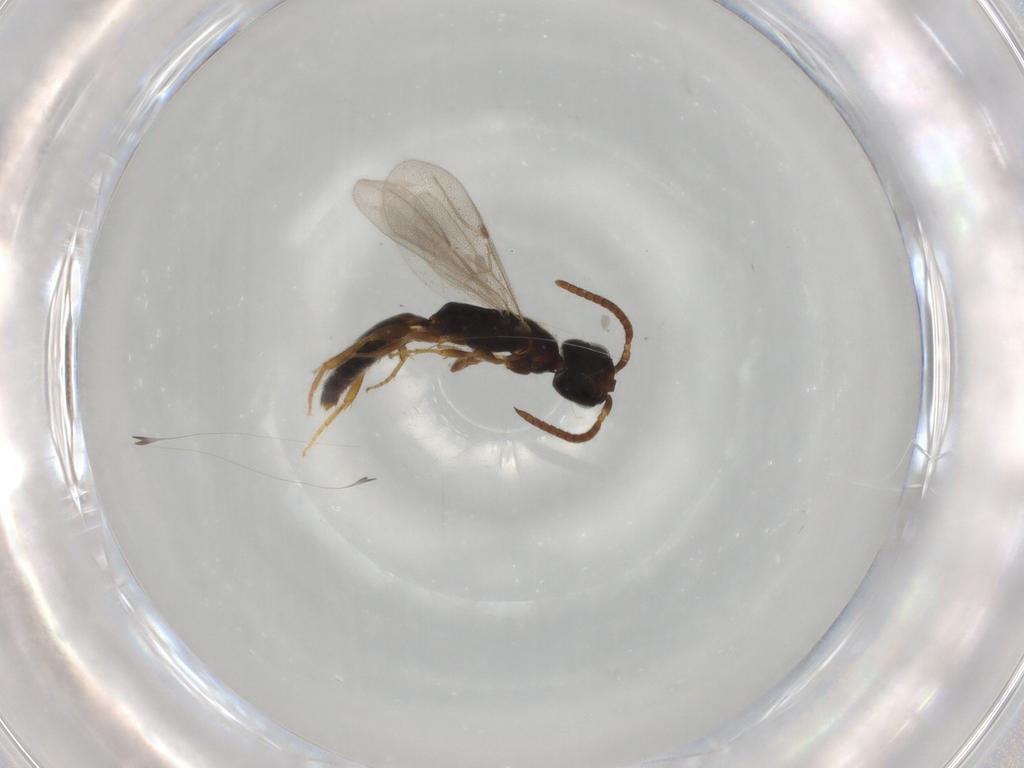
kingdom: Animalia
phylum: Arthropoda
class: Insecta
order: Hymenoptera
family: Bethylidae
